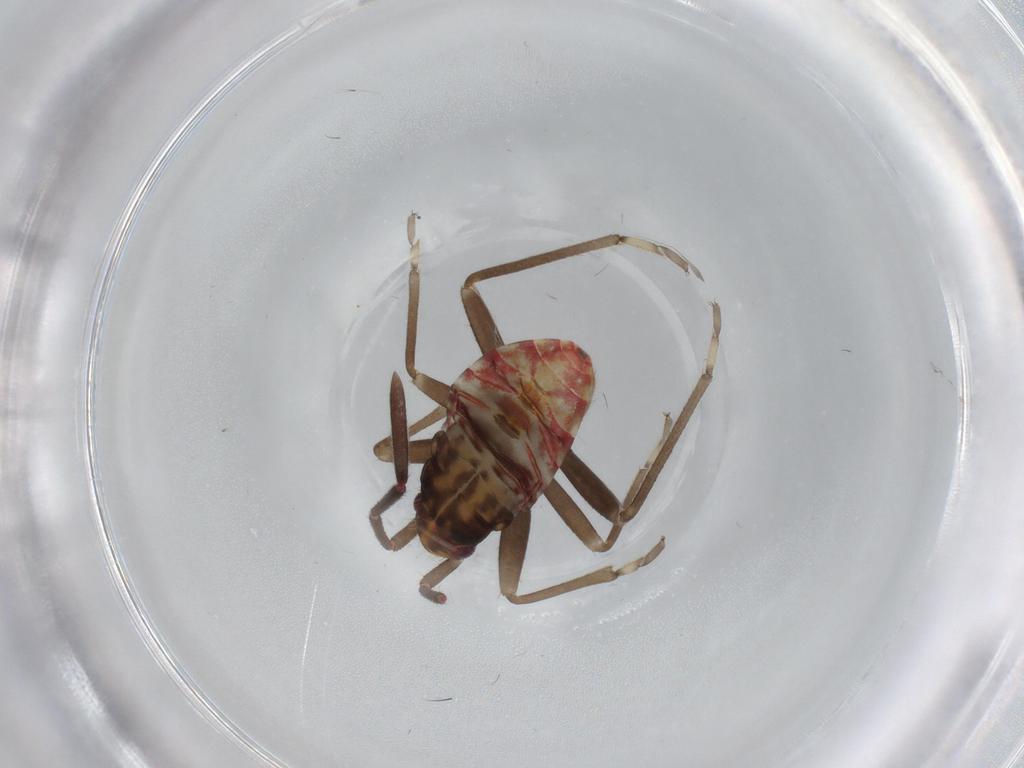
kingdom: Animalia
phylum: Arthropoda
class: Insecta
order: Hemiptera
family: Rhyparochromidae
